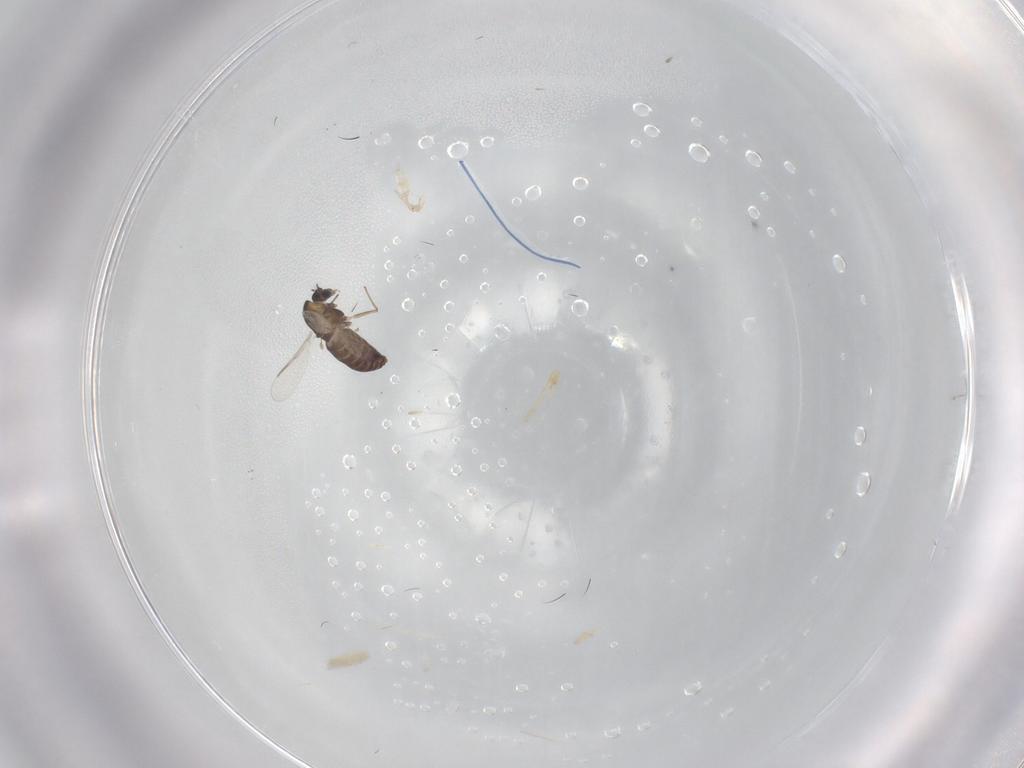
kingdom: Animalia
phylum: Arthropoda
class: Insecta
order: Diptera
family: Chironomidae
